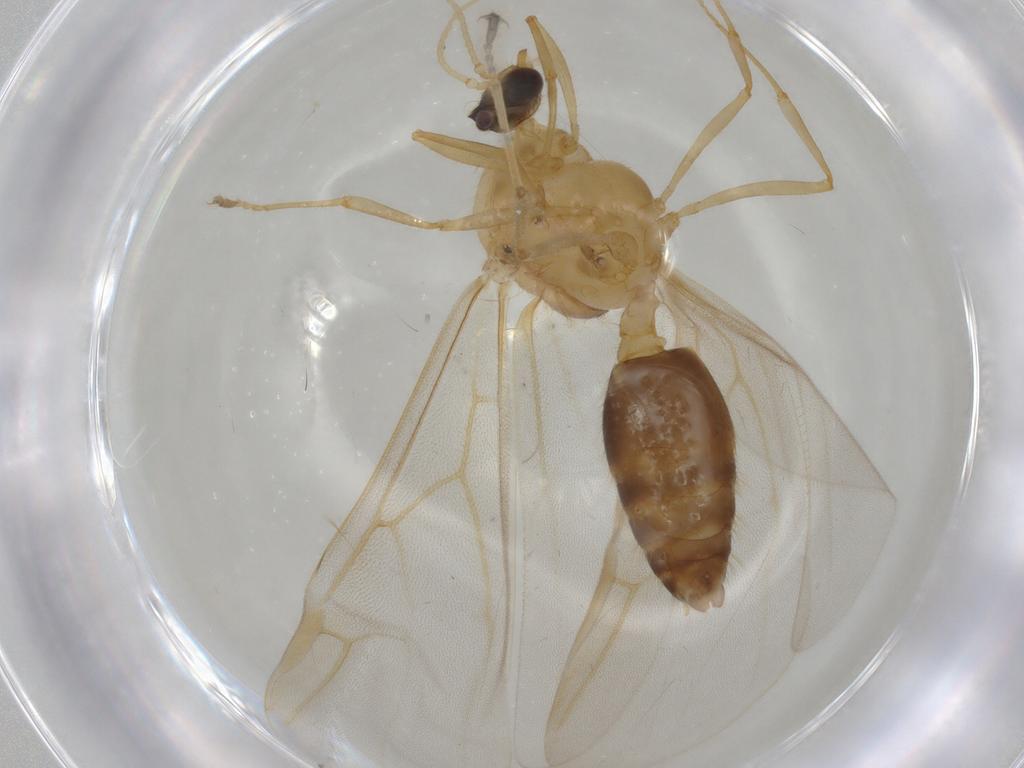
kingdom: Animalia
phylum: Arthropoda
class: Insecta
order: Hymenoptera
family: Formicidae
